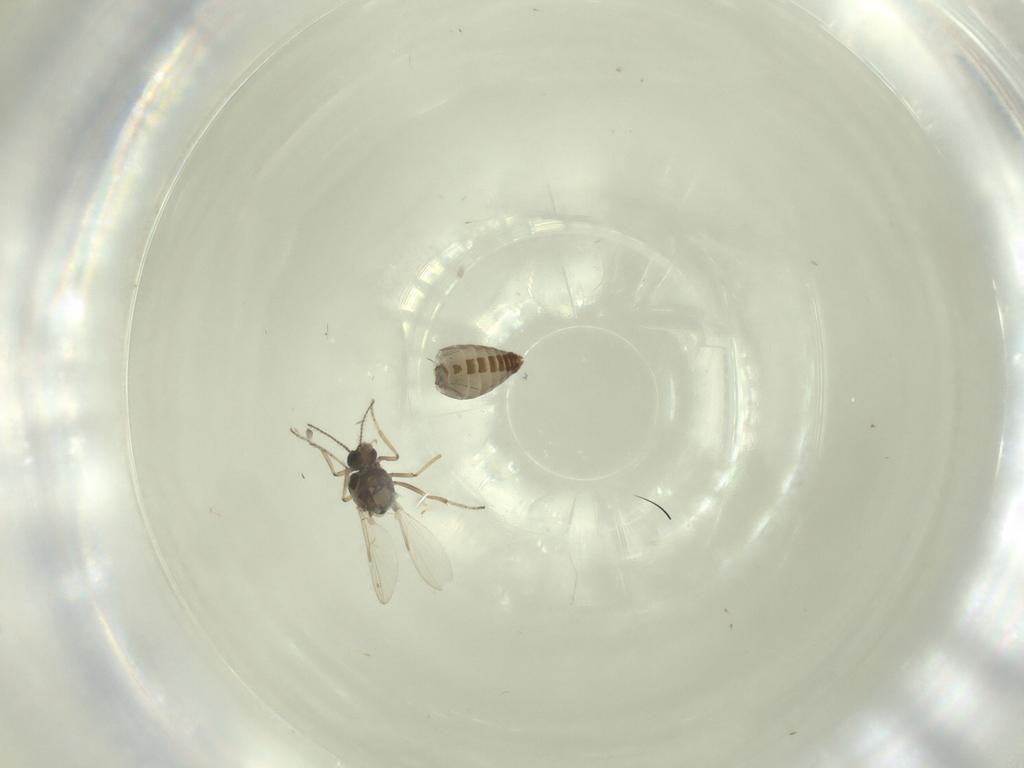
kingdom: Animalia
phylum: Arthropoda
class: Insecta
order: Diptera
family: Ceratopogonidae
